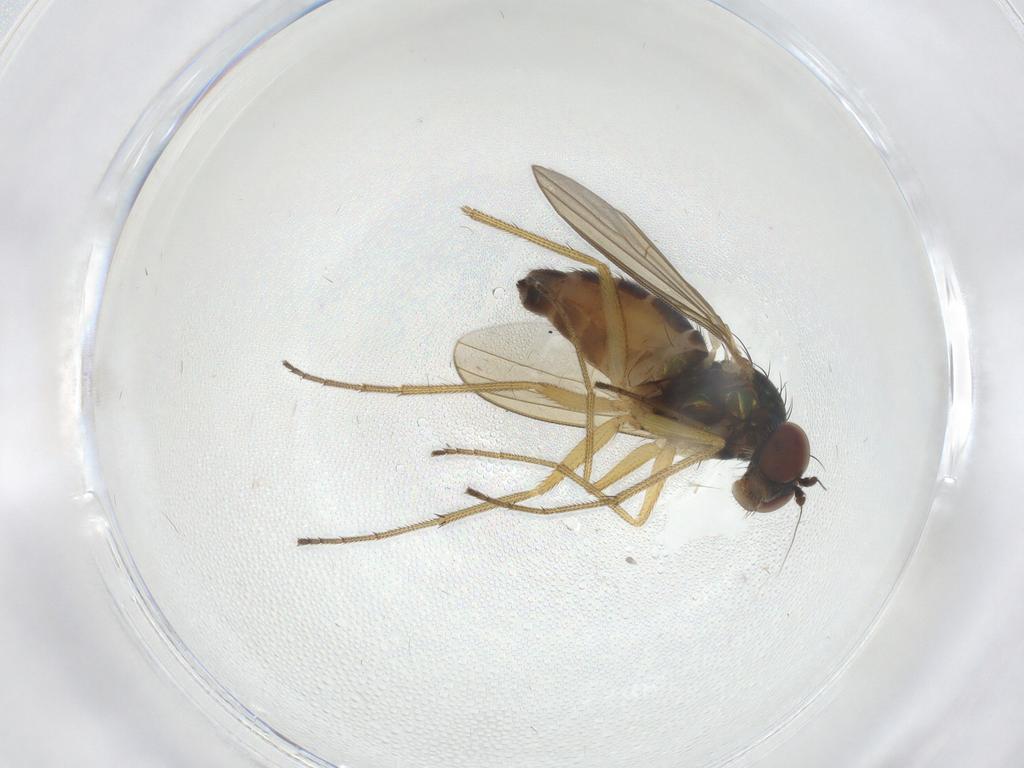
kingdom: Animalia
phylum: Arthropoda
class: Insecta
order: Diptera
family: Dolichopodidae
